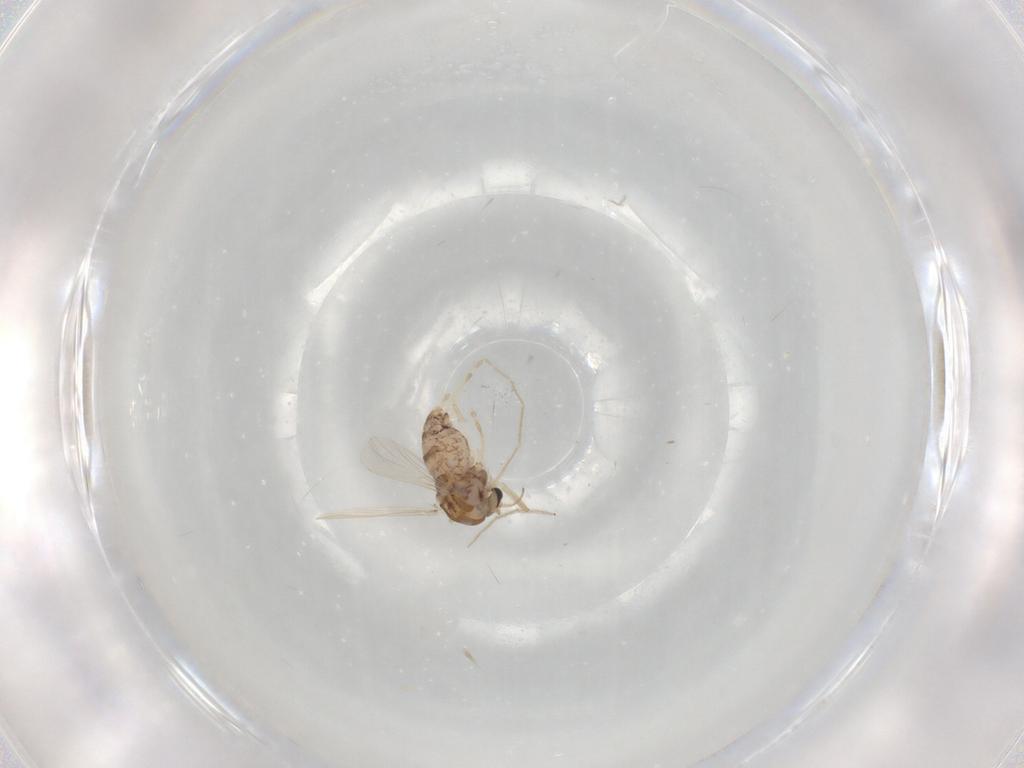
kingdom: Animalia
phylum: Arthropoda
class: Insecta
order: Diptera
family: Chironomidae
